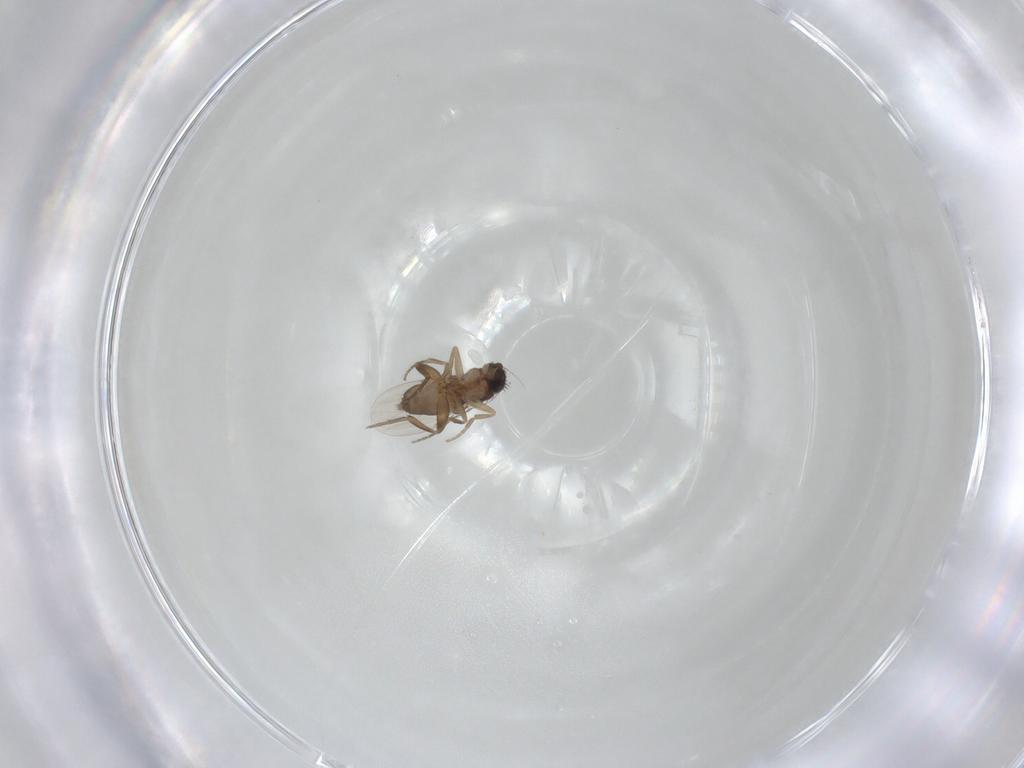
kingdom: Animalia
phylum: Arthropoda
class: Insecta
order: Diptera
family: Phoridae
